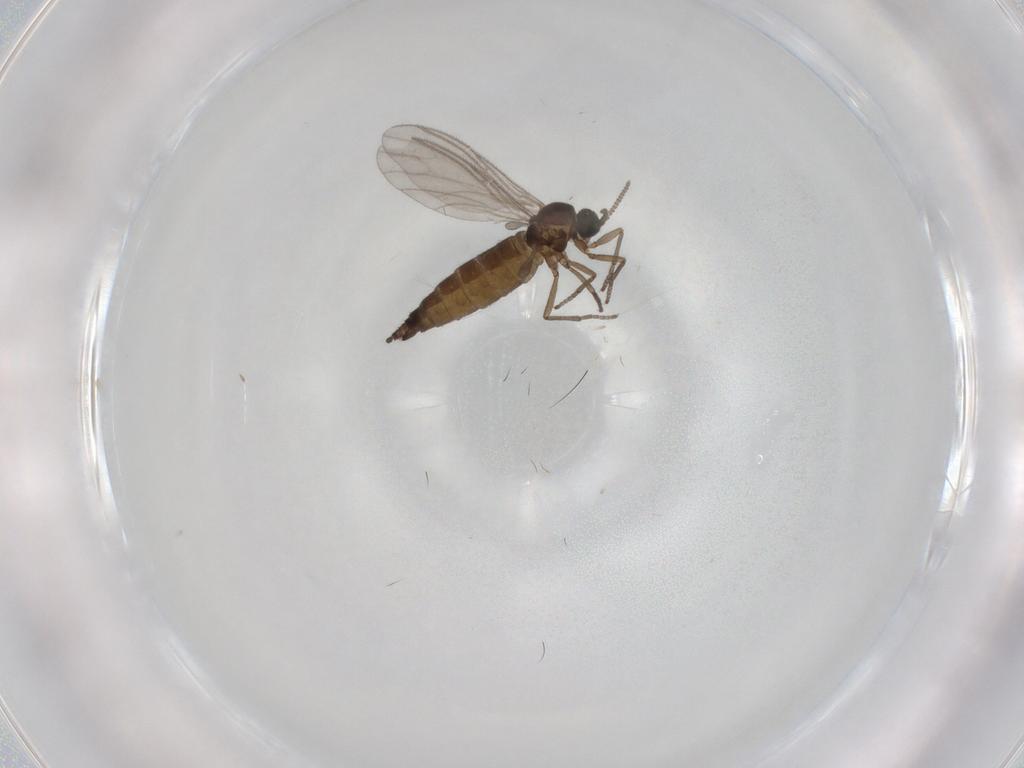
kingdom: Animalia
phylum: Arthropoda
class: Insecta
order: Diptera
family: Sciaridae
